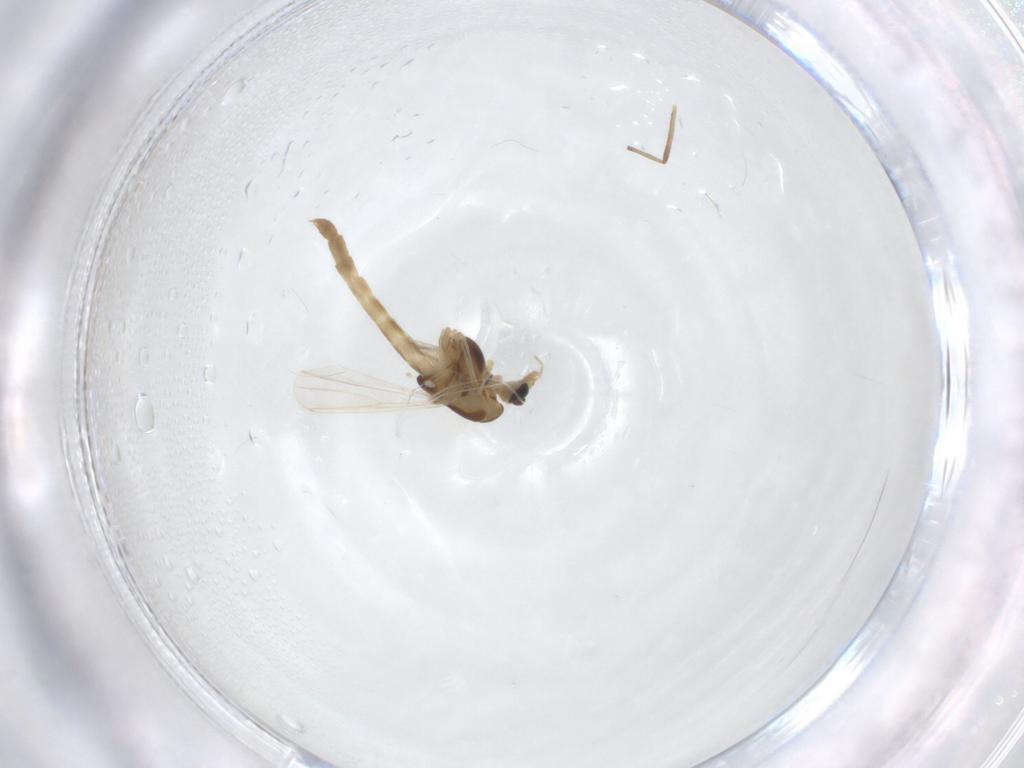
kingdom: Animalia
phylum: Arthropoda
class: Insecta
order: Diptera
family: Chironomidae
